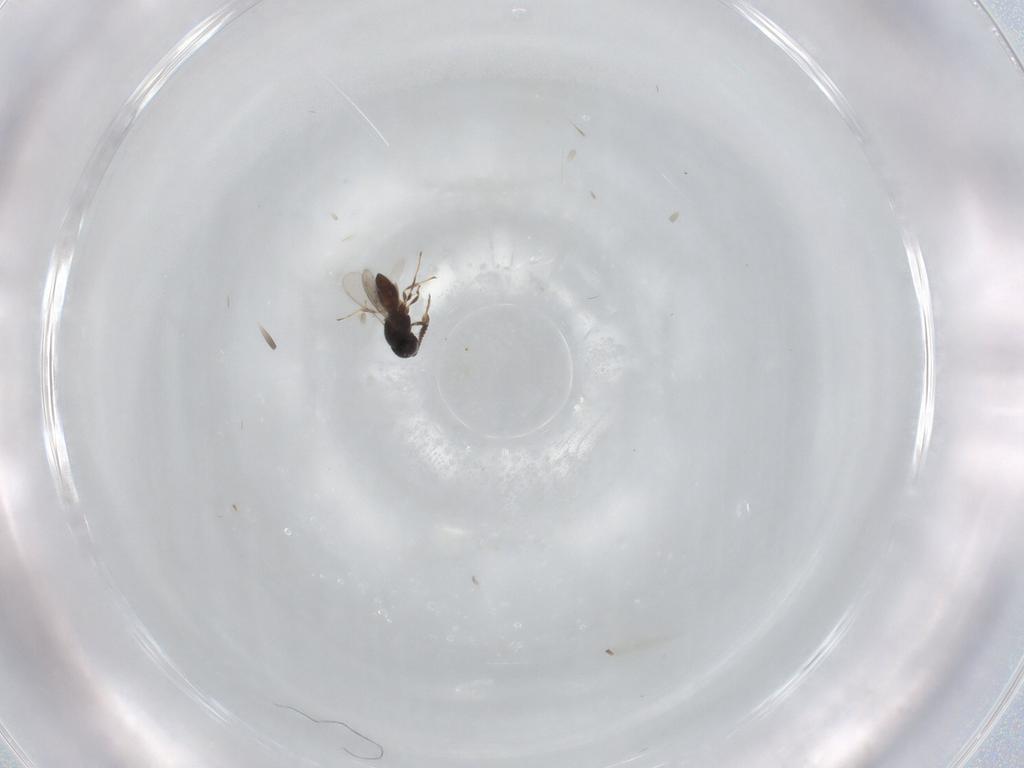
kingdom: Animalia
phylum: Arthropoda
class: Insecta
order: Hymenoptera
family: Scelionidae
